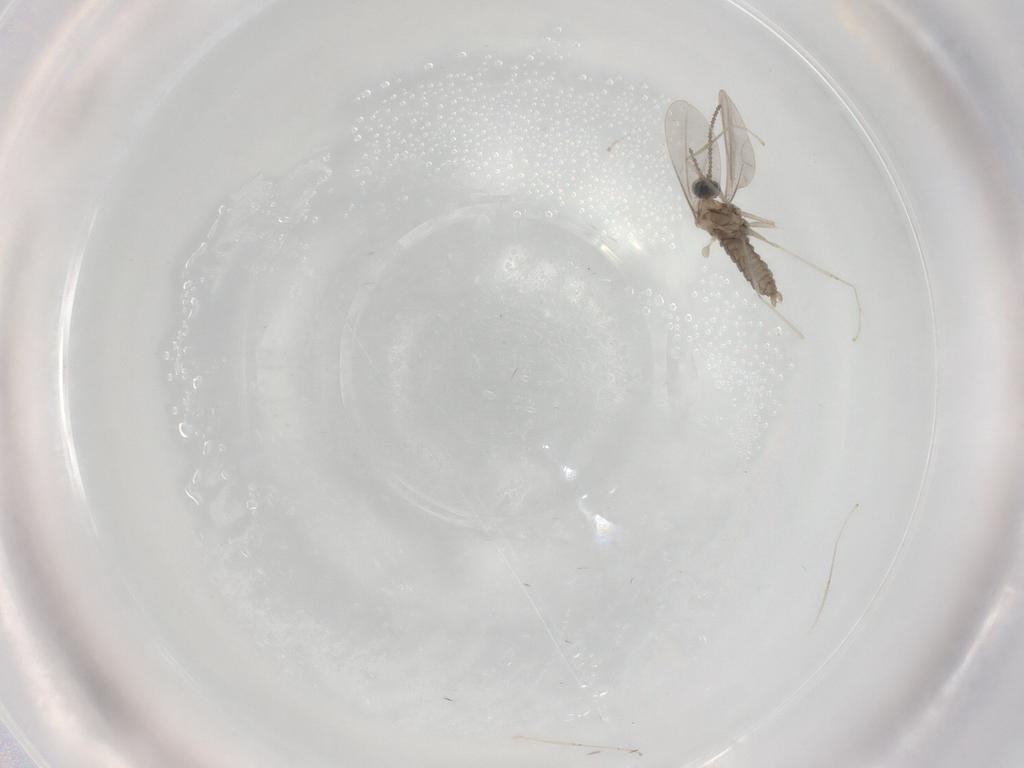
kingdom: Animalia
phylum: Arthropoda
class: Insecta
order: Diptera
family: Cecidomyiidae
